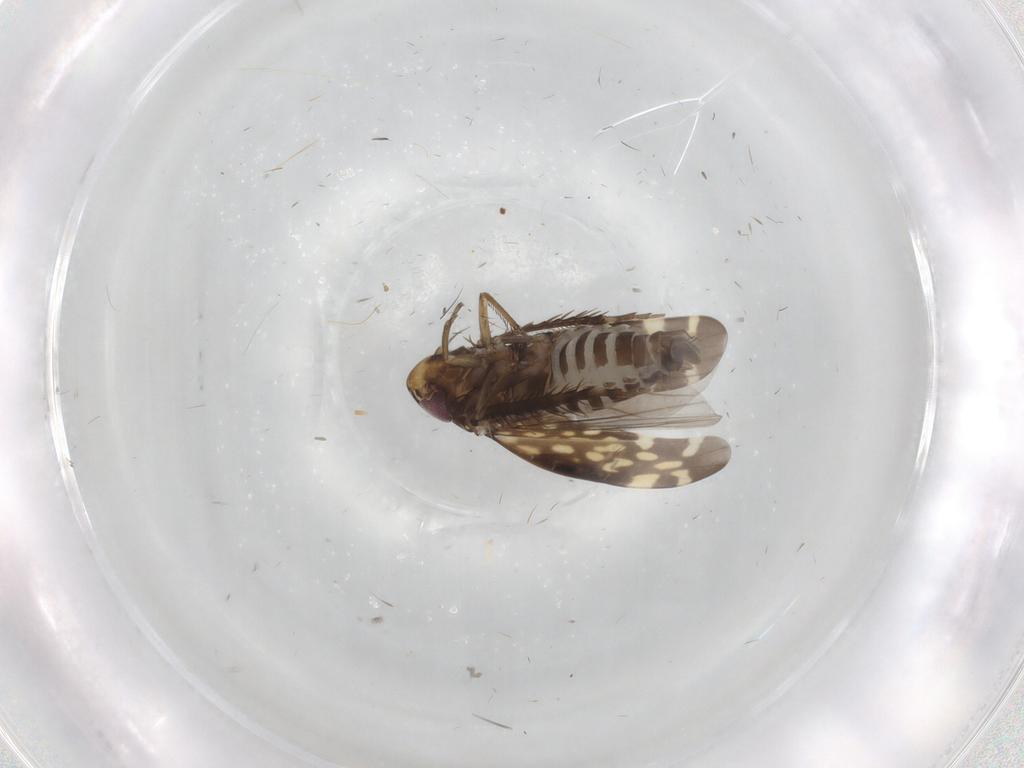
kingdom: Animalia
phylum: Arthropoda
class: Insecta
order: Hemiptera
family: Cicadellidae
